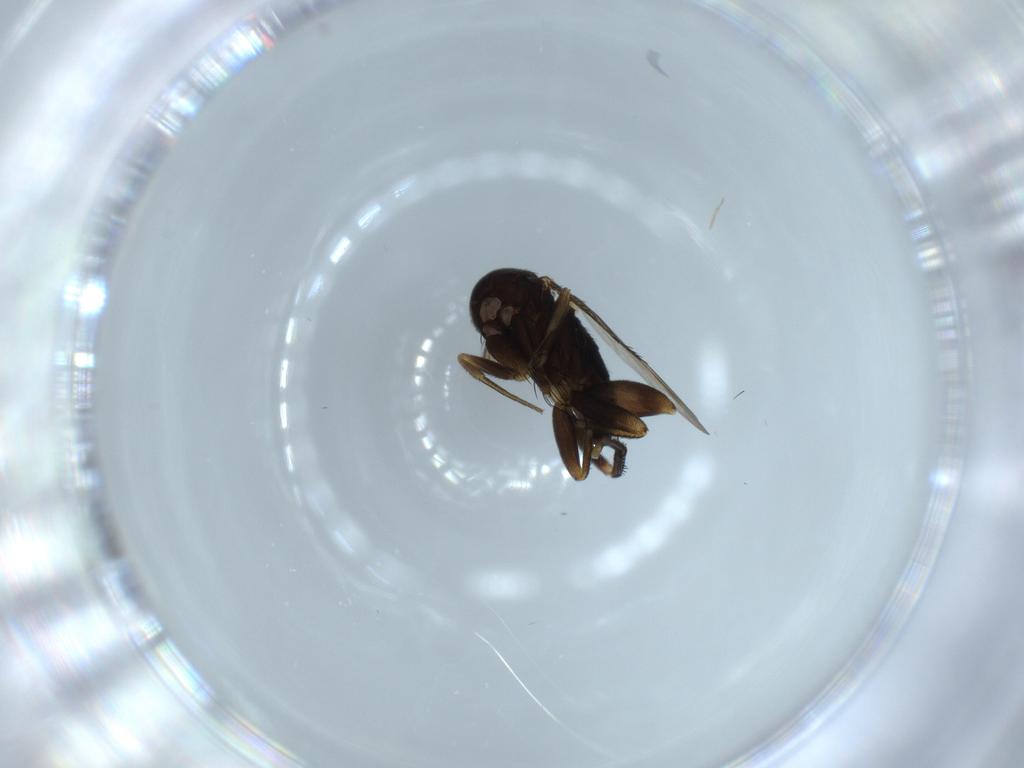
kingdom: Animalia
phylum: Arthropoda
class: Insecta
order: Diptera
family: Phoridae
